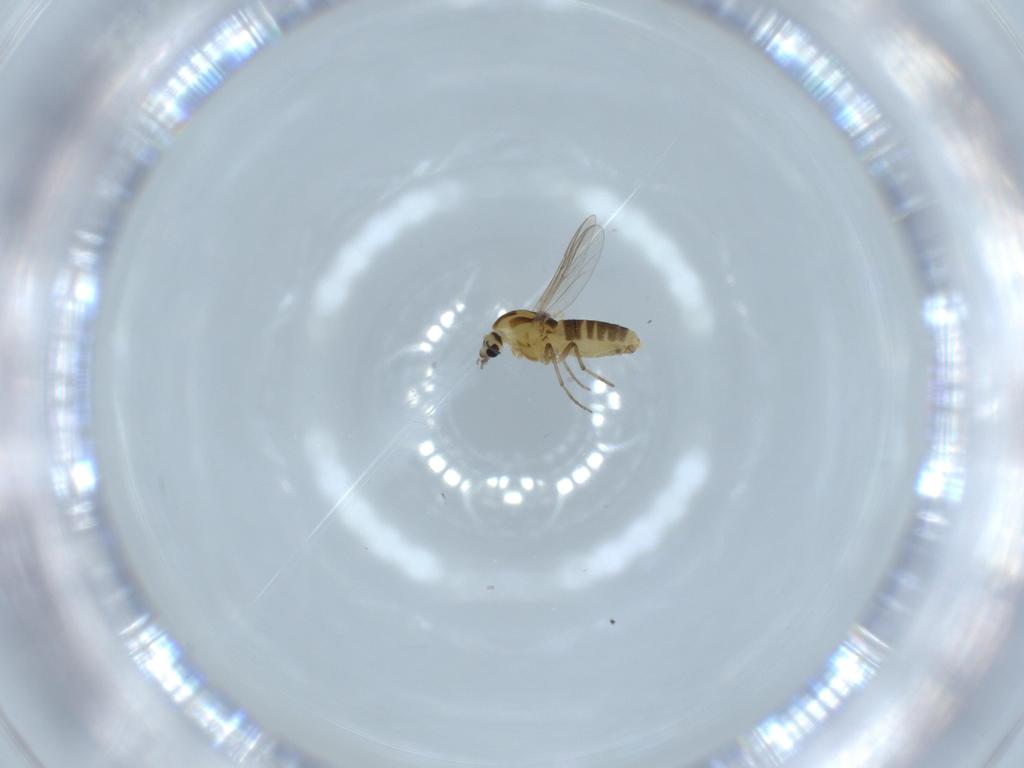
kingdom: Animalia
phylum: Arthropoda
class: Insecta
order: Diptera
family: Chironomidae
